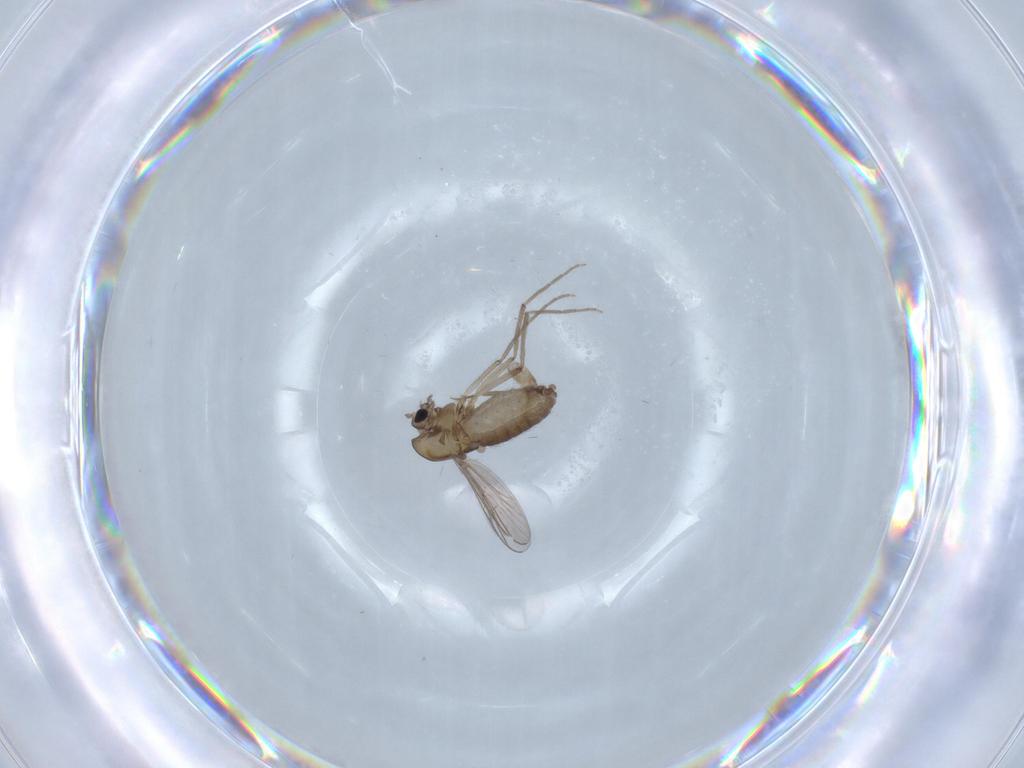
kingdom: Animalia
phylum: Arthropoda
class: Insecta
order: Diptera
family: Chironomidae
